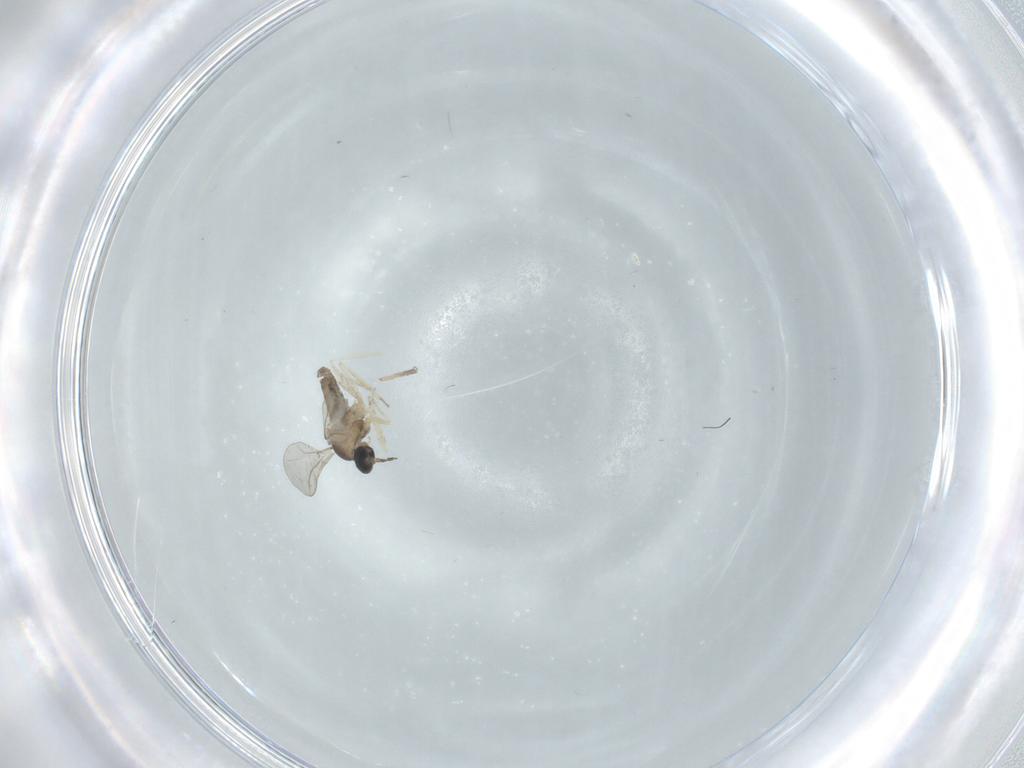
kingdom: Animalia
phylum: Arthropoda
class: Insecta
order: Diptera
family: Cecidomyiidae
